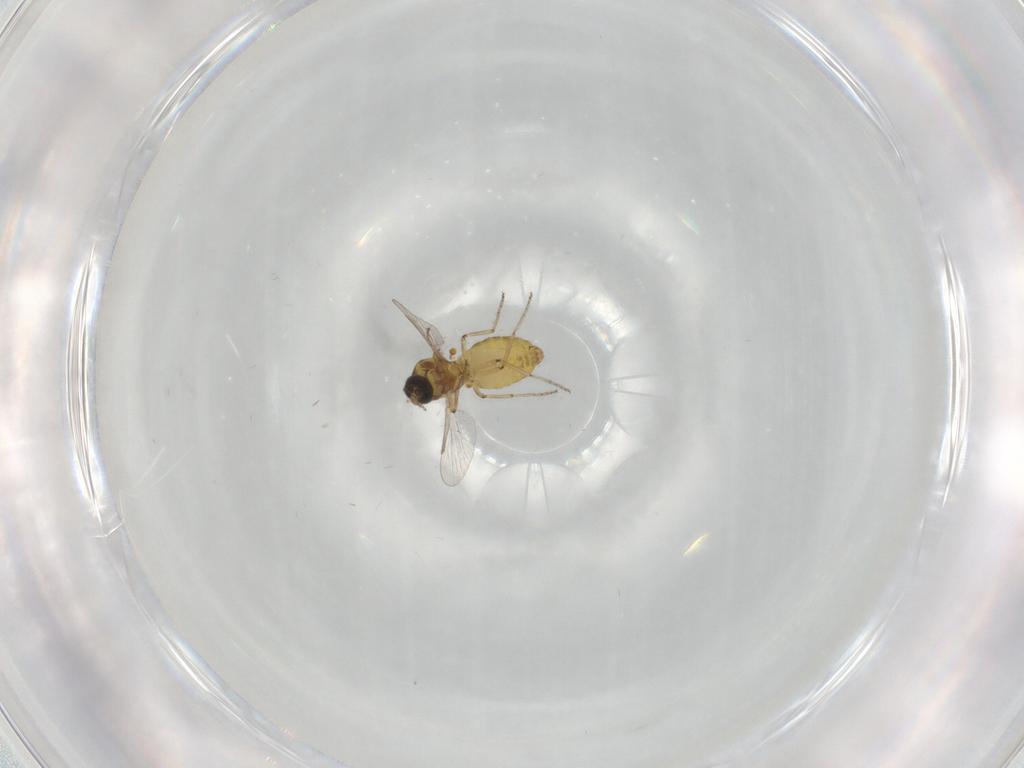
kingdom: Animalia
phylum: Arthropoda
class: Insecta
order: Diptera
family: Ceratopogonidae
